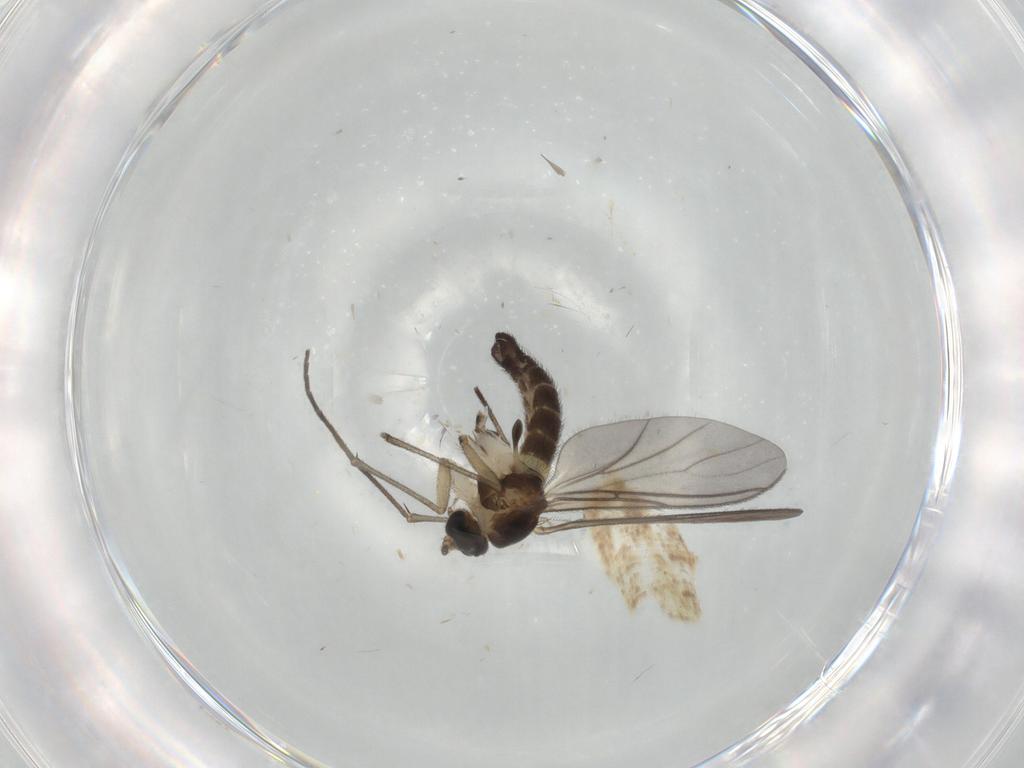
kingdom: Animalia
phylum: Arthropoda
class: Insecta
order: Diptera
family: Sciaridae
